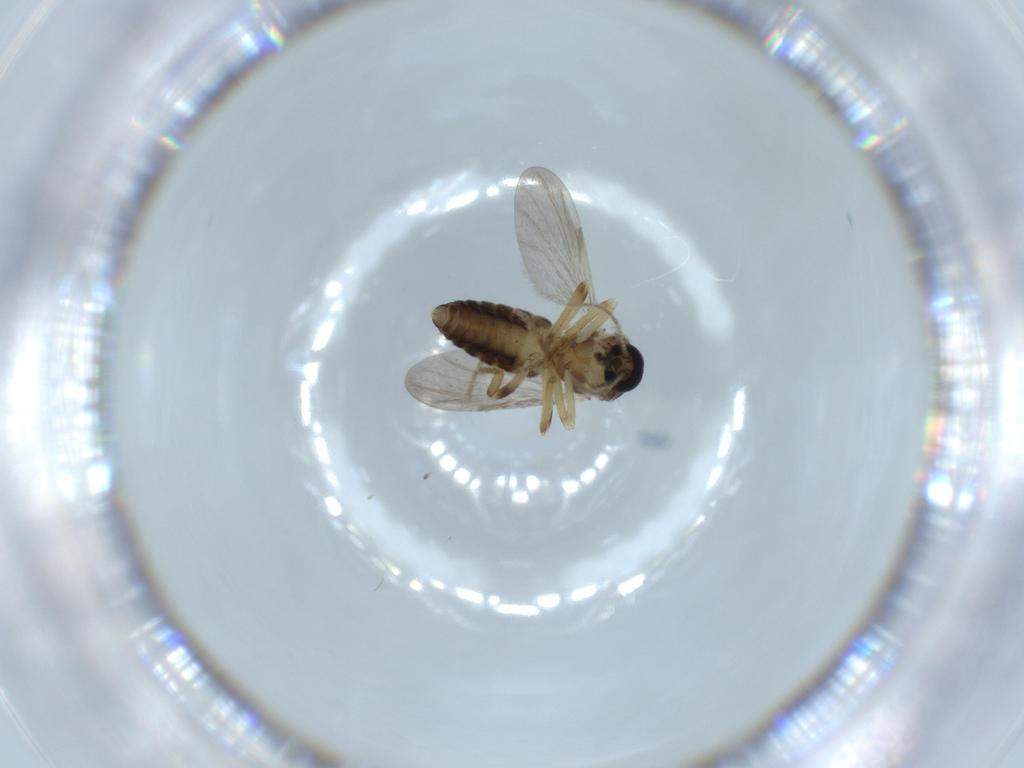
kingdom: Animalia
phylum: Arthropoda
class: Insecta
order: Diptera
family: Ceratopogonidae
